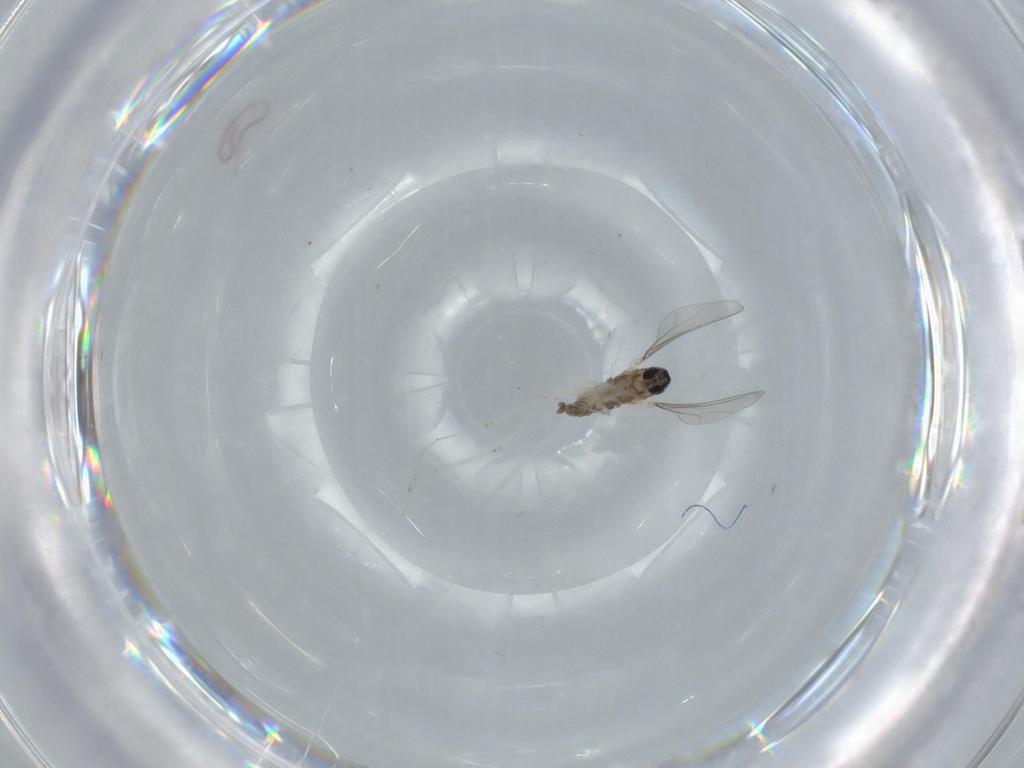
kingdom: Animalia
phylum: Arthropoda
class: Insecta
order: Diptera
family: Cecidomyiidae
